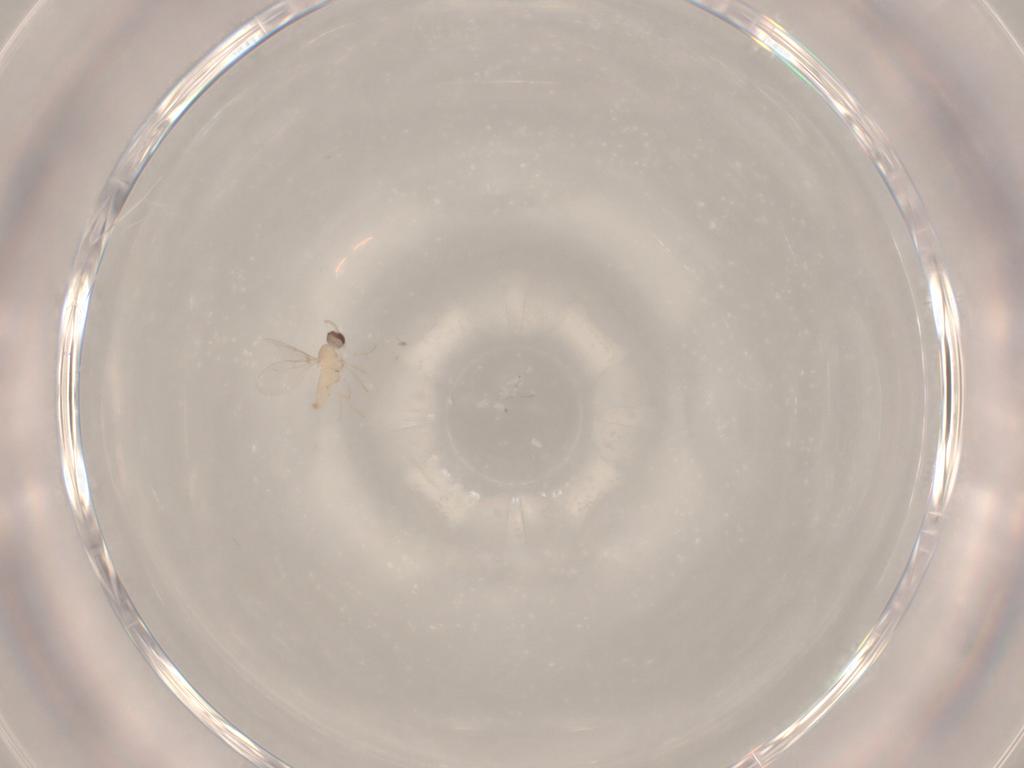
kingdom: Animalia
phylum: Arthropoda
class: Insecta
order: Diptera
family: Cecidomyiidae
